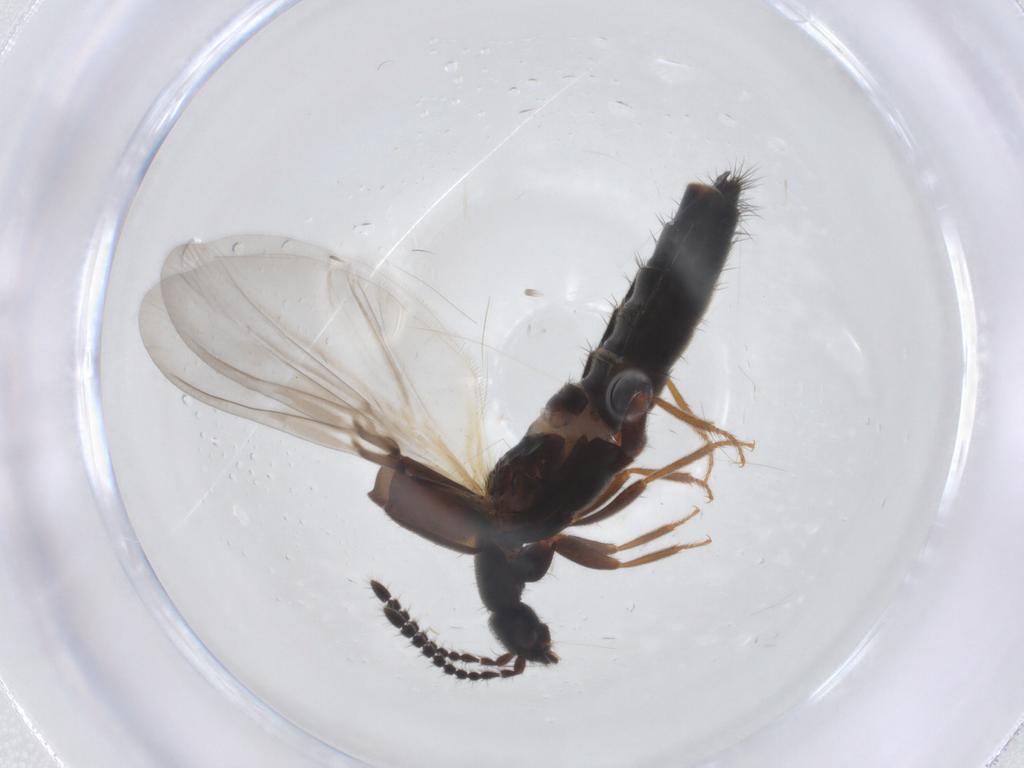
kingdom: Animalia
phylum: Arthropoda
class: Insecta
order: Coleoptera
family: Staphylinidae
